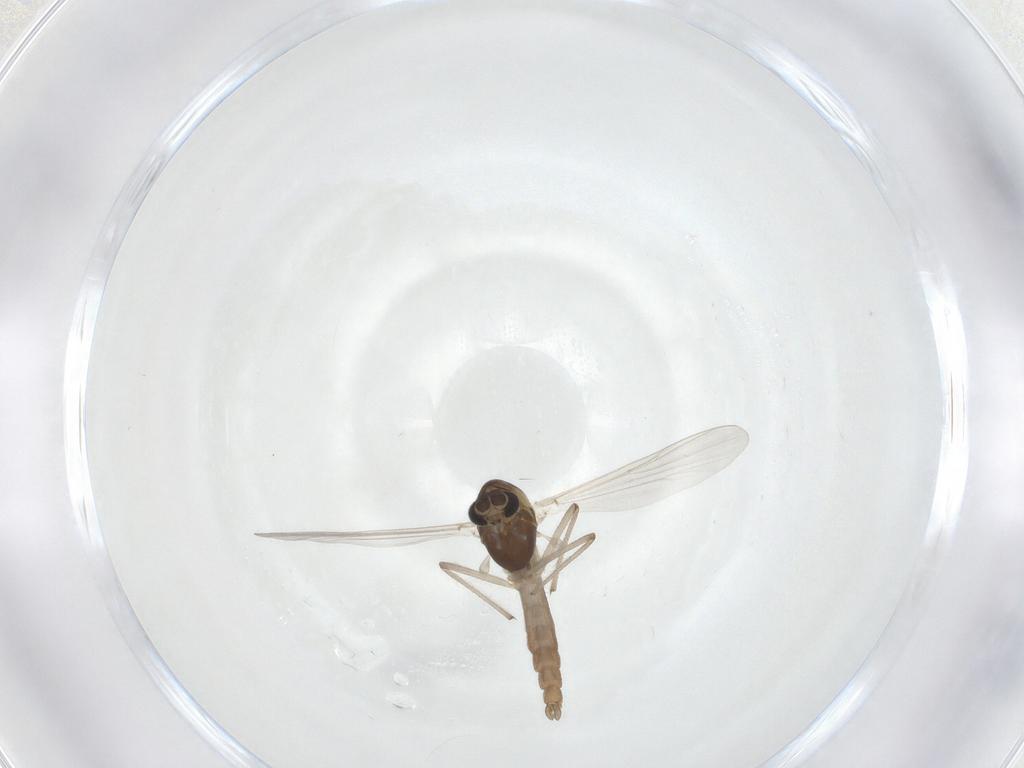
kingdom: Animalia
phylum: Arthropoda
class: Insecta
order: Diptera
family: Chironomidae
